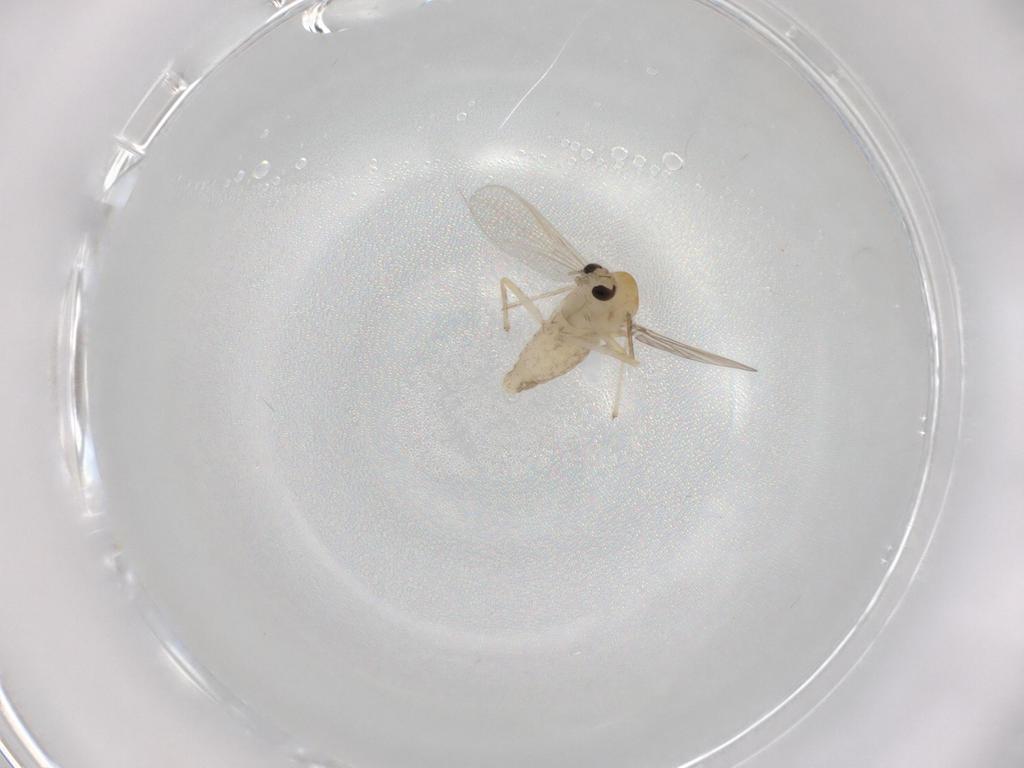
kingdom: Animalia
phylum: Arthropoda
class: Insecta
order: Diptera
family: Chironomidae
